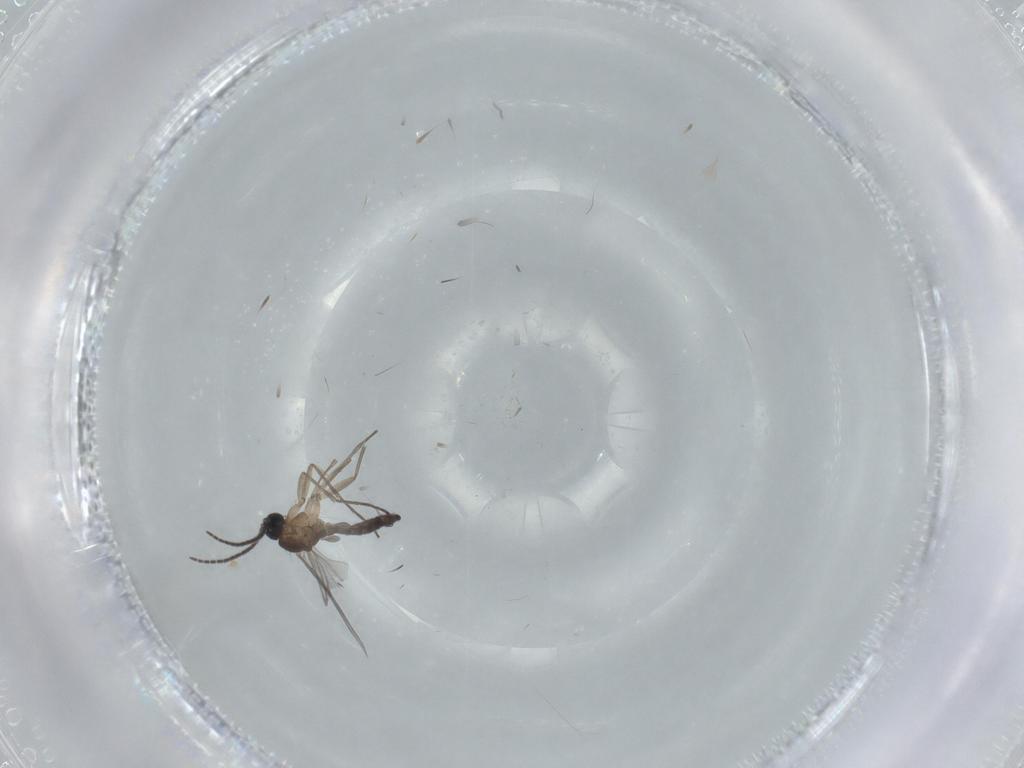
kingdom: Animalia
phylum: Arthropoda
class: Insecta
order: Diptera
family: Sciaridae
